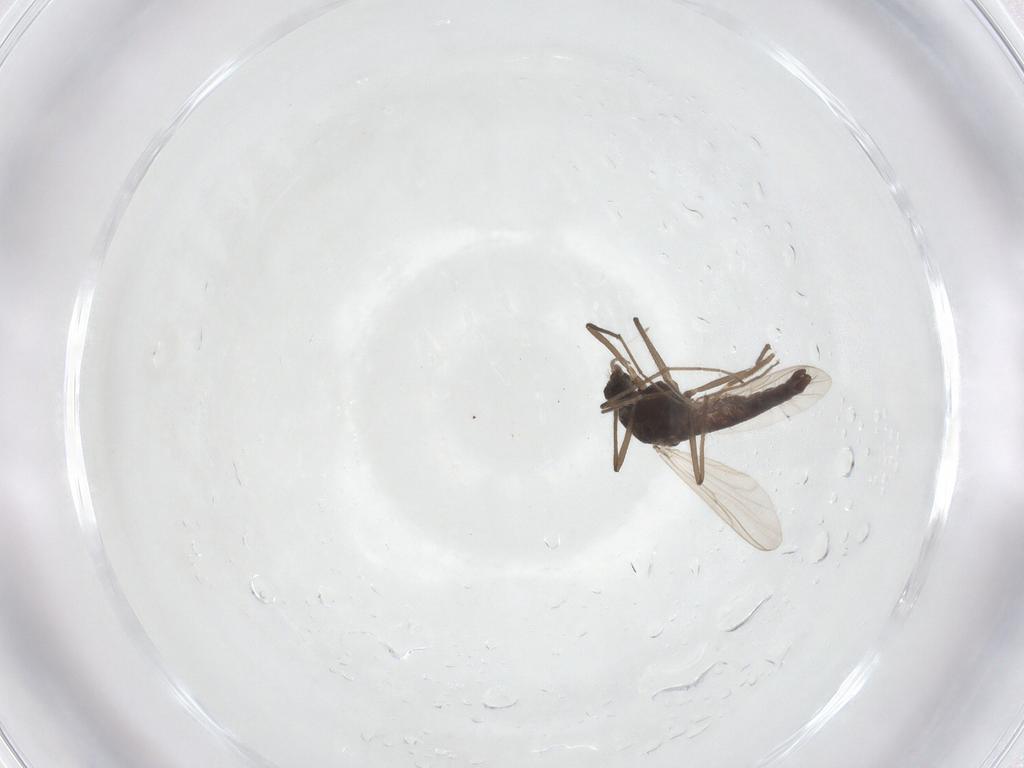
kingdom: Animalia
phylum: Arthropoda
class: Insecta
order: Diptera
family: Chironomidae
